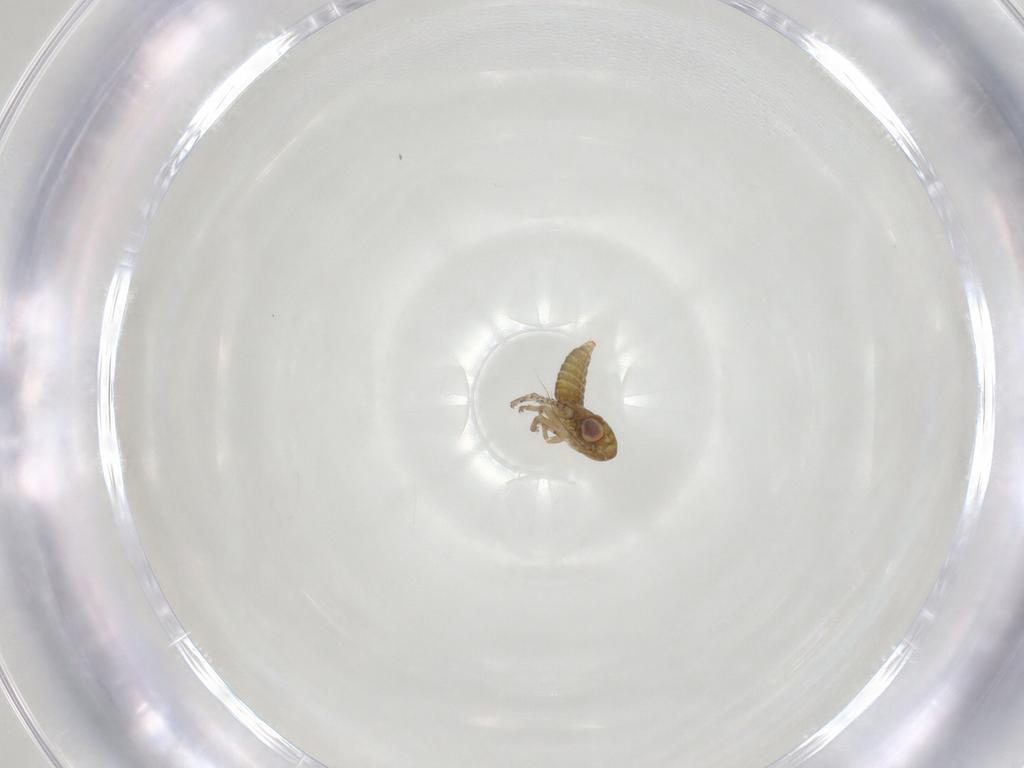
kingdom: Animalia
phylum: Arthropoda
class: Insecta
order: Hemiptera
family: Cicadellidae
